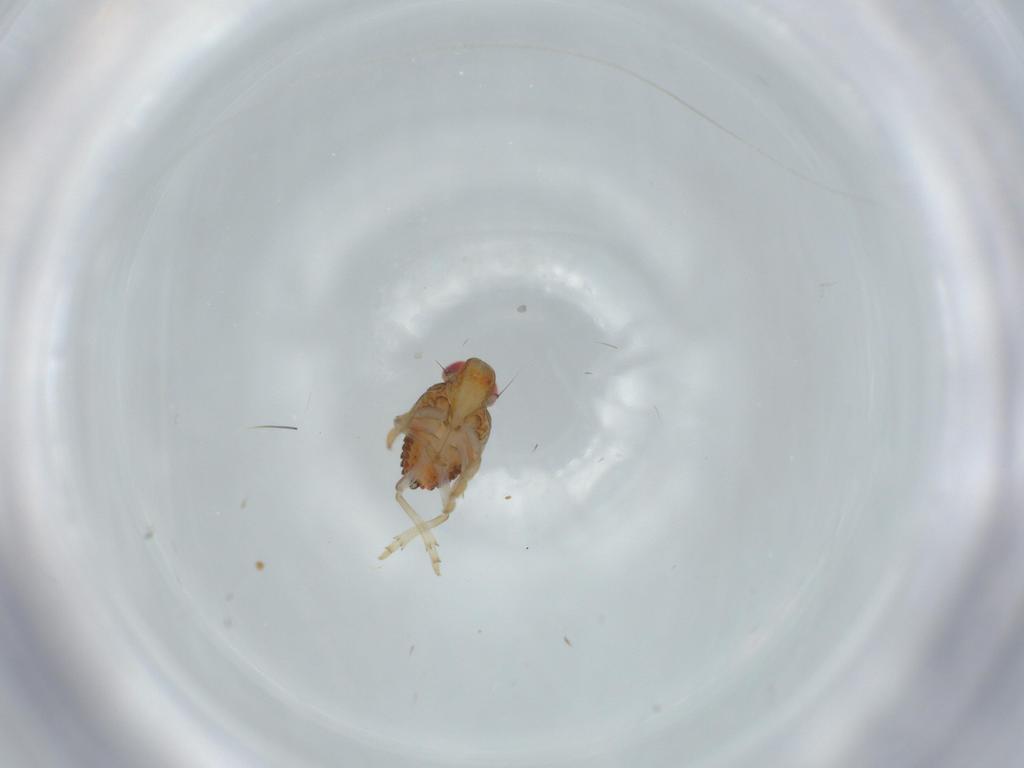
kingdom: Animalia
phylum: Arthropoda
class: Insecta
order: Hemiptera
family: Issidae
